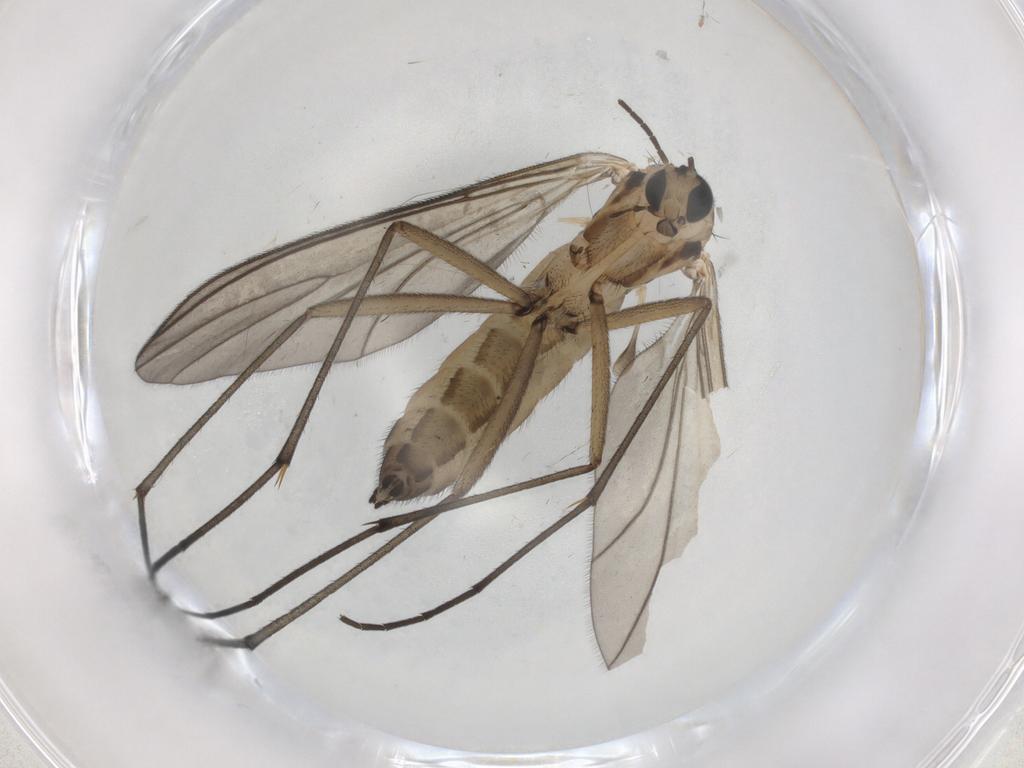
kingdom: Animalia
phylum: Arthropoda
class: Insecta
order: Diptera
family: Sciaridae
